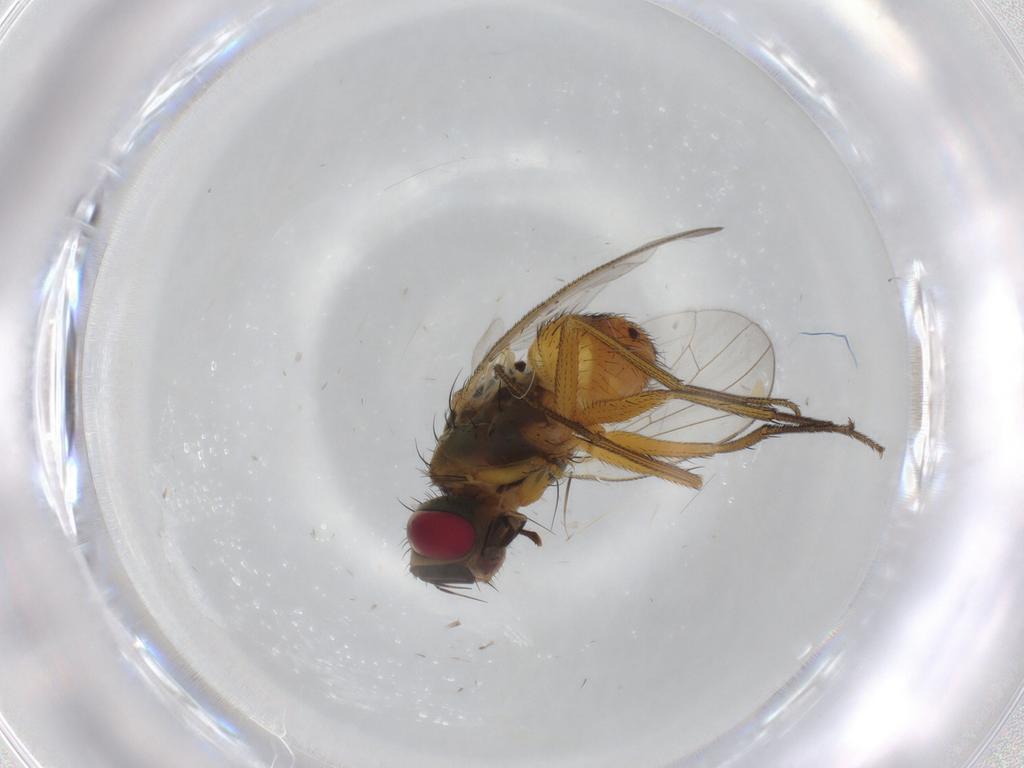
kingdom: Animalia
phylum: Arthropoda
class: Insecta
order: Diptera
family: Muscidae
